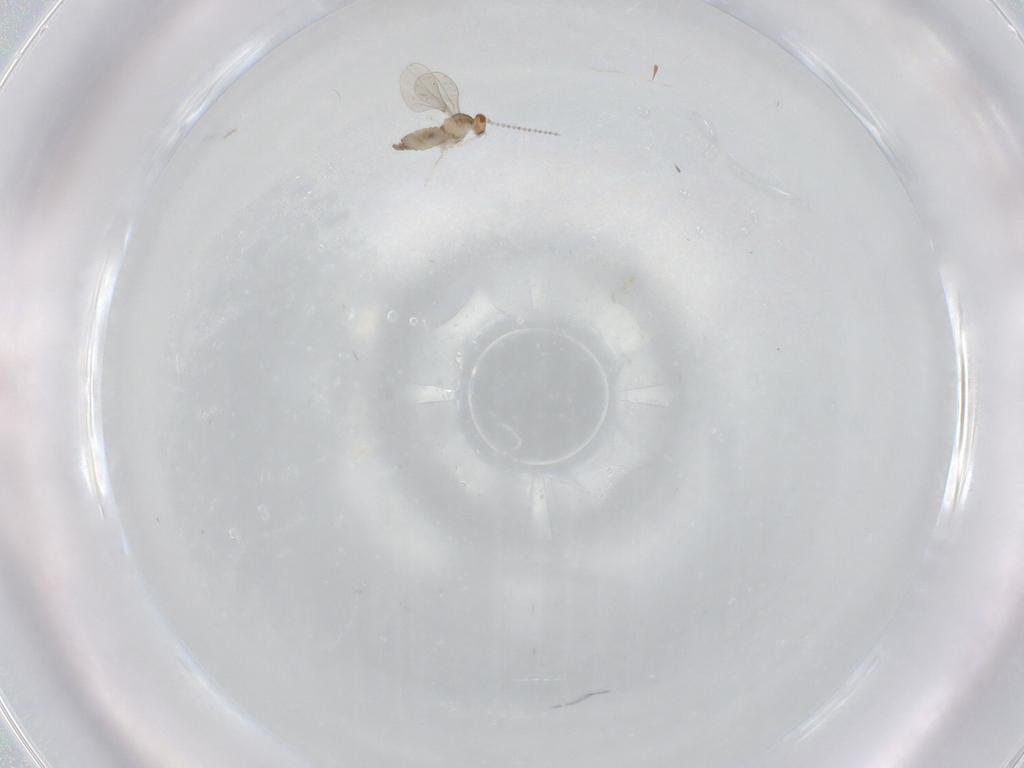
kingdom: Animalia
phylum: Arthropoda
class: Insecta
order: Diptera
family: Cecidomyiidae
